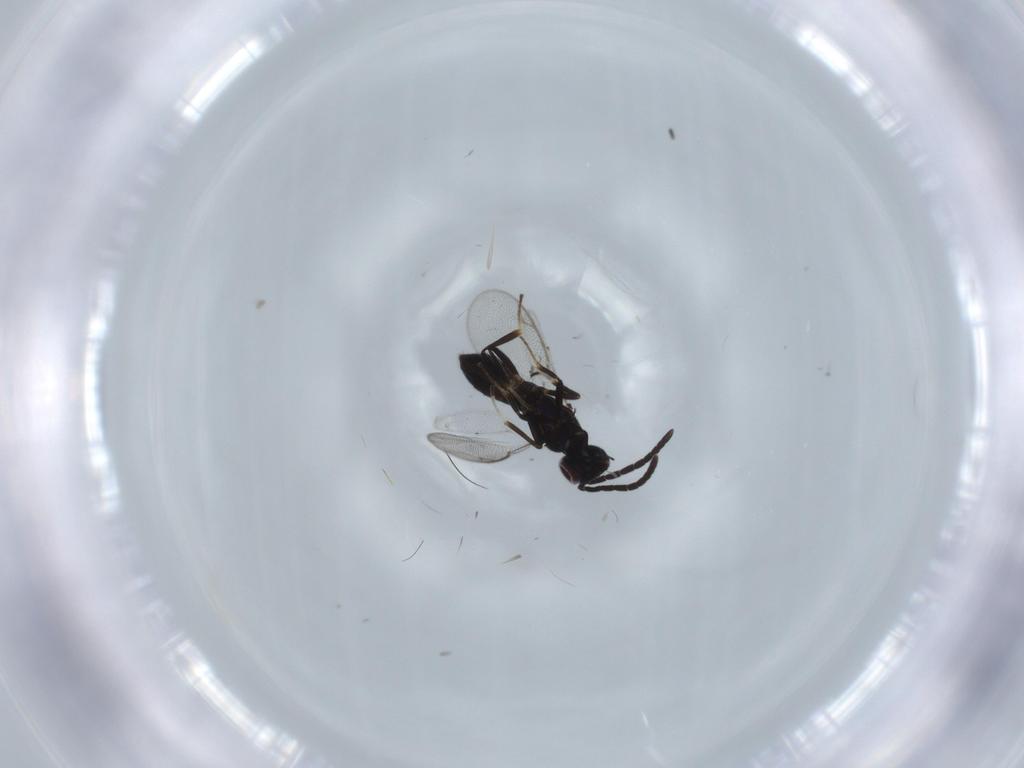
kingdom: Animalia
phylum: Arthropoda
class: Insecta
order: Hymenoptera
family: Eupelmidae
